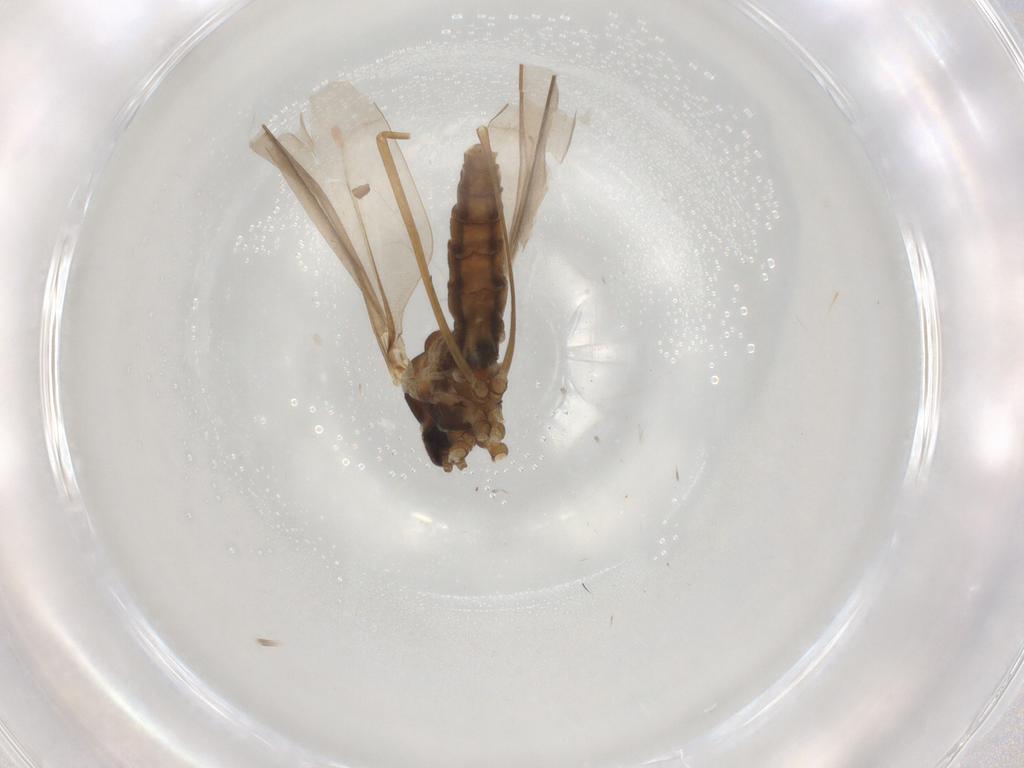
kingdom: Animalia
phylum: Arthropoda
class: Insecta
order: Diptera
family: Cecidomyiidae
